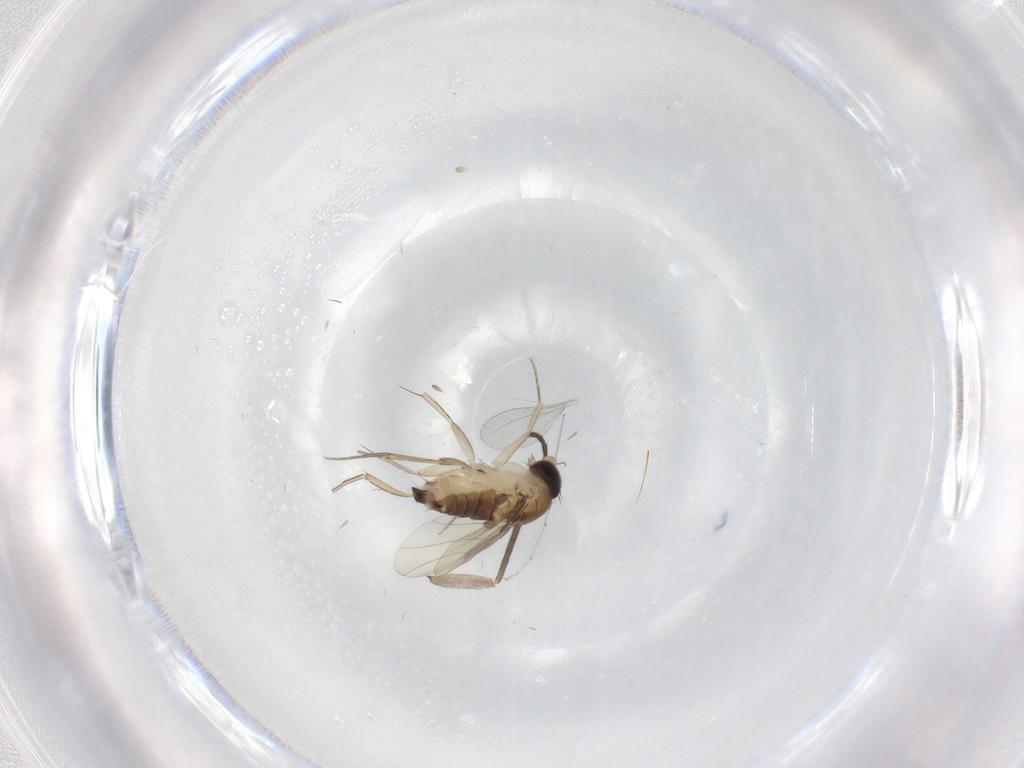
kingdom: Animalia
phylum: Arthropoda
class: Insecta
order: Diptera
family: Sciaridae
